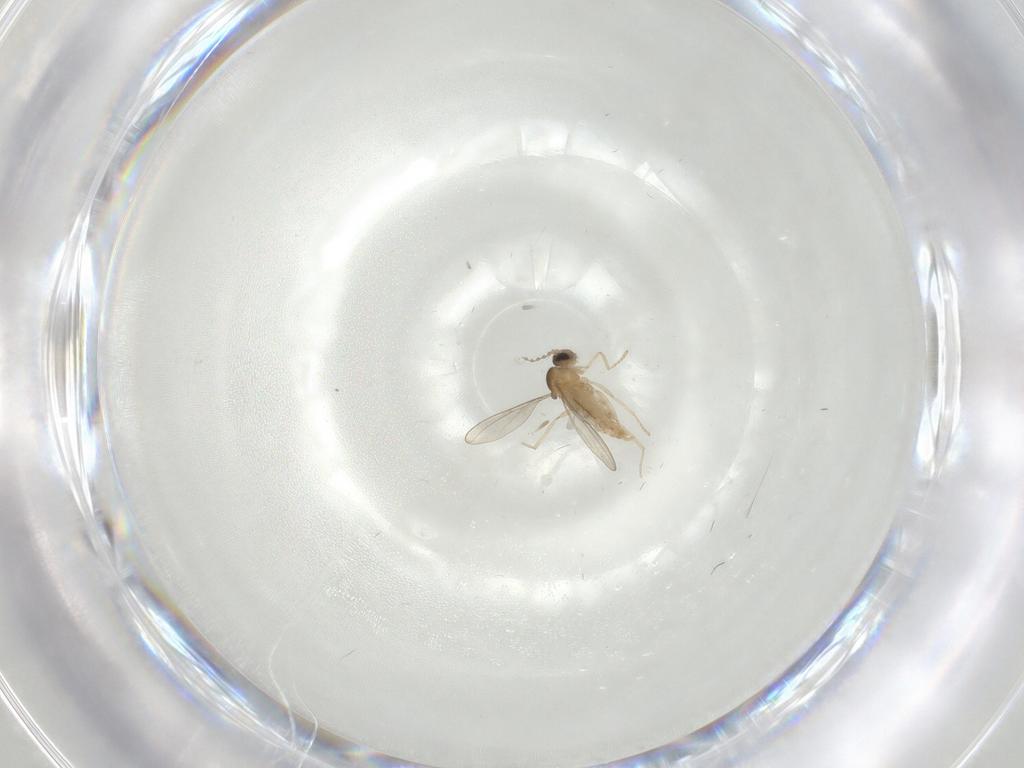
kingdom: Animalia
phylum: Arthropoda
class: Insecta
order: Diptera
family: Cecidomyiidae
